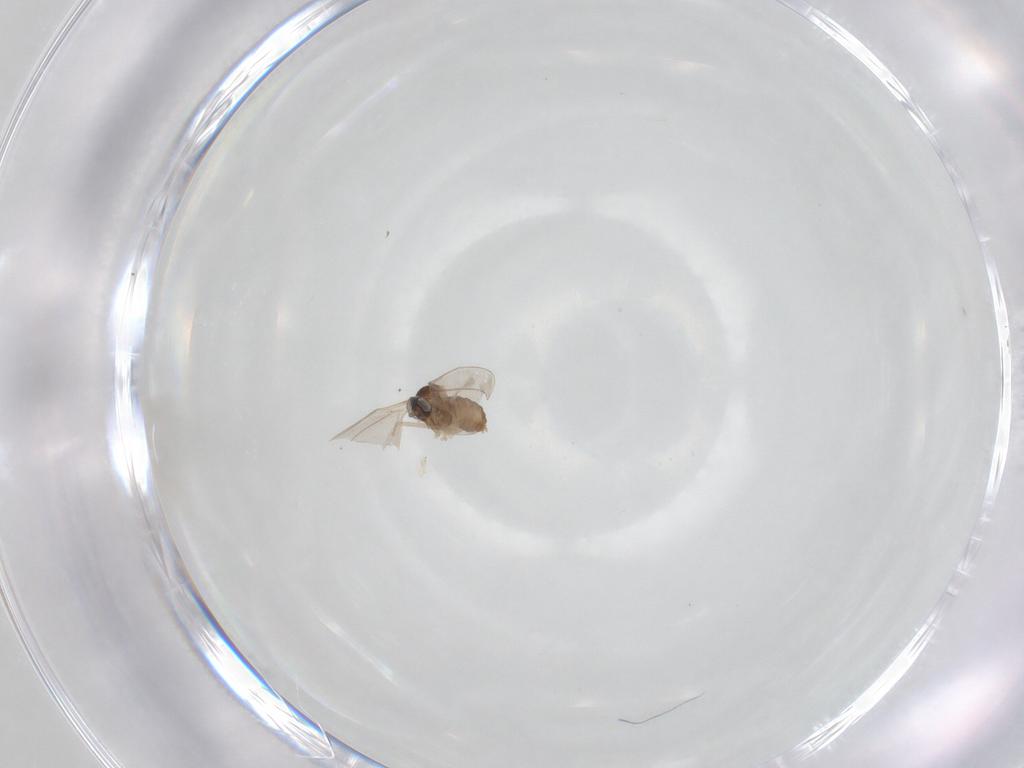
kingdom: Animalia
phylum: Arthropoda
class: Insecta
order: Diptera
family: Cecidomyiidae
